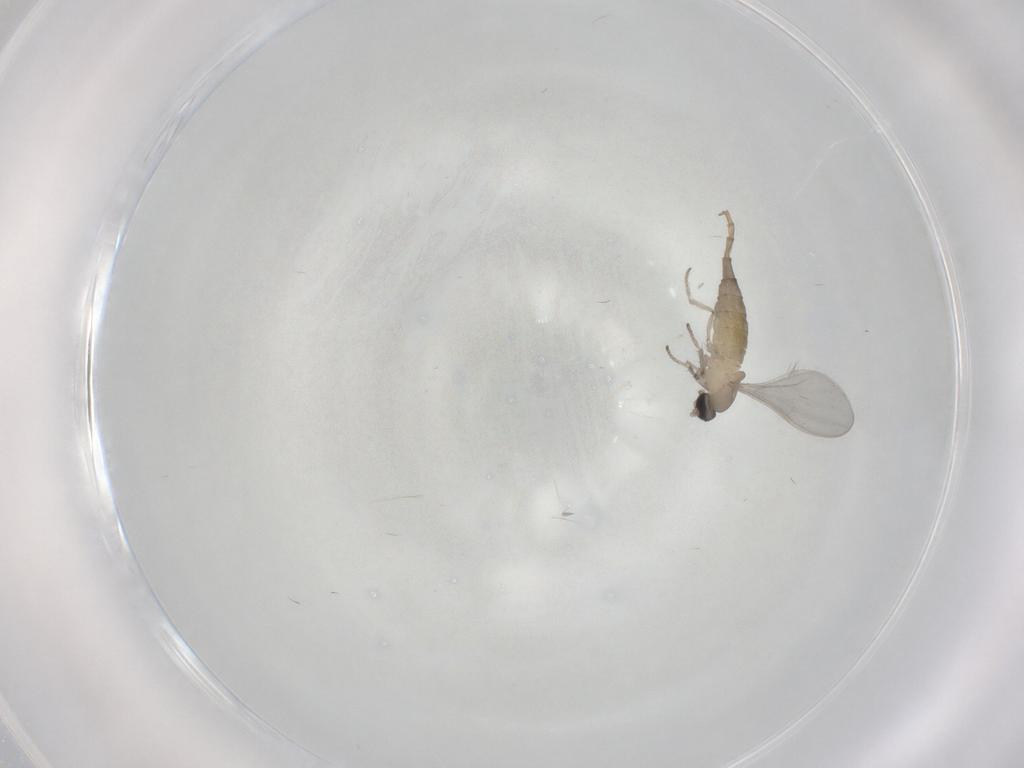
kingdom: Animalia
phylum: Arthropoda
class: Insecta
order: Diptera
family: Cecidomyiidae
